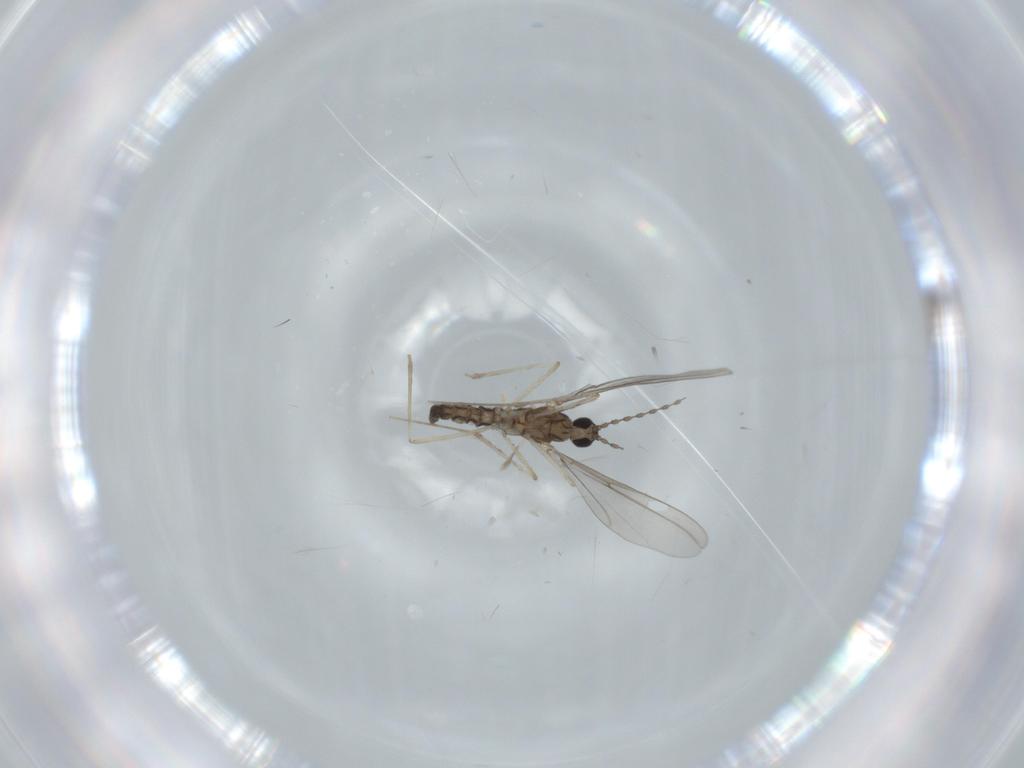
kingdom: Animalia
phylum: Arthropoda
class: Insecta
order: Diptera
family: Cecidomyiidae
